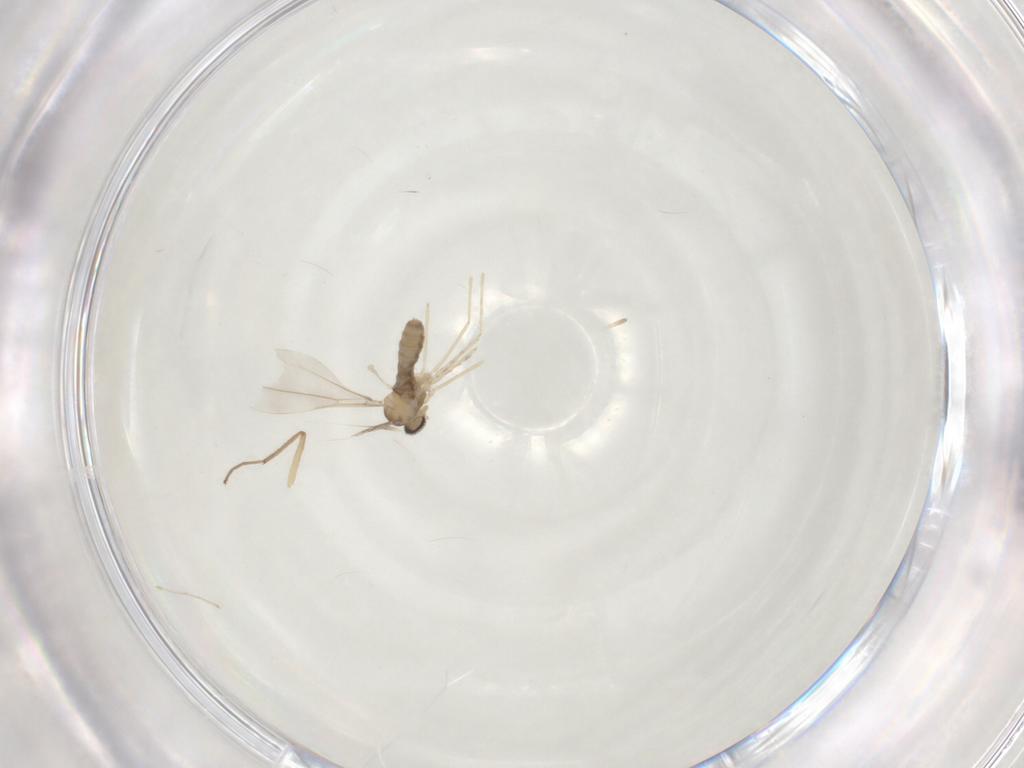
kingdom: Animalia
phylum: Arthropoda
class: Insecta
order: Diptera
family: Cecidomyiidae
